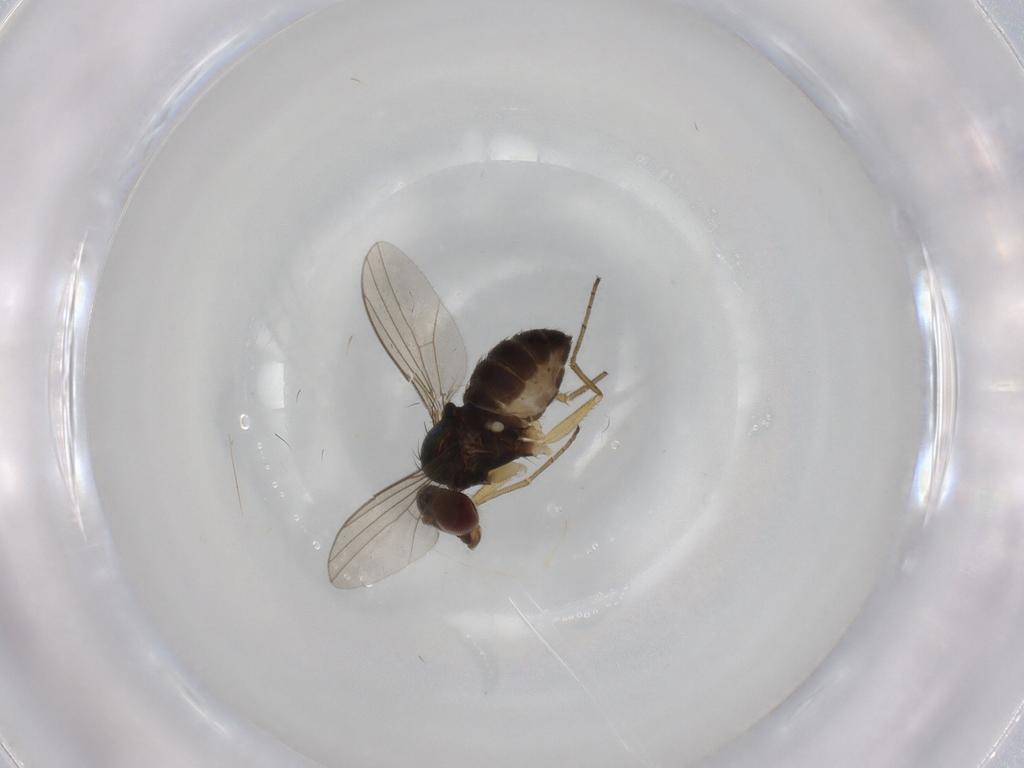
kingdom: Animalia
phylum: Arthropoda
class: Insecta
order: Diptera
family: Dolichopodidae
